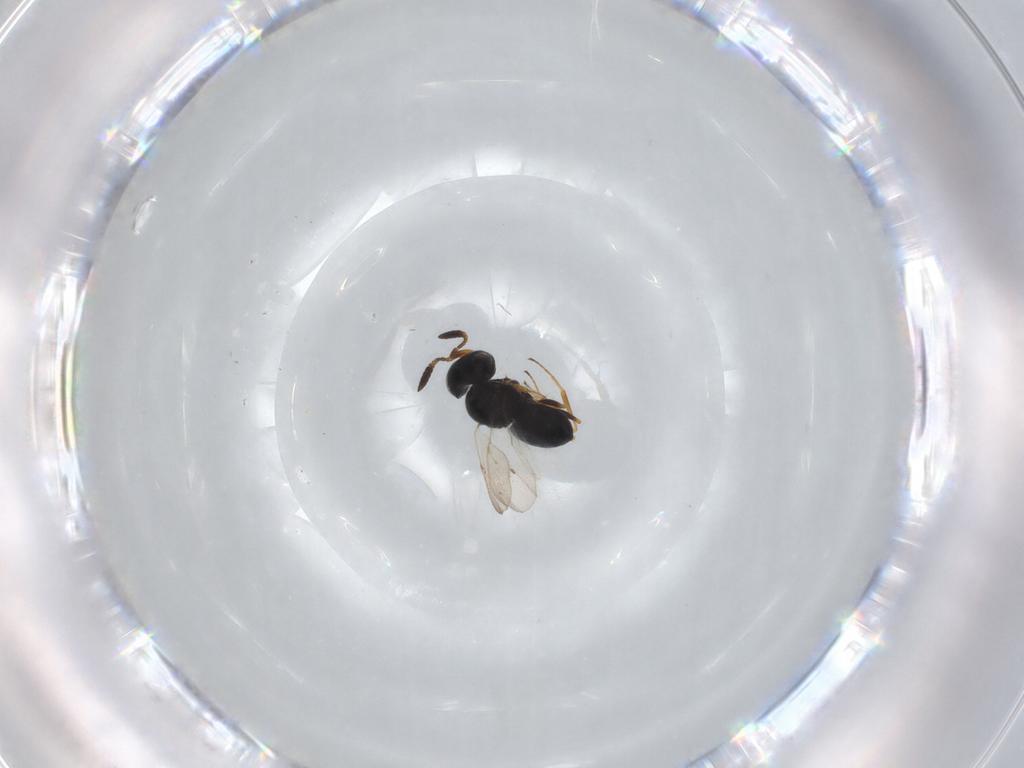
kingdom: Animalia
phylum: Arthropoda
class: Insecta
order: Coleoptera
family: Curculionidae
